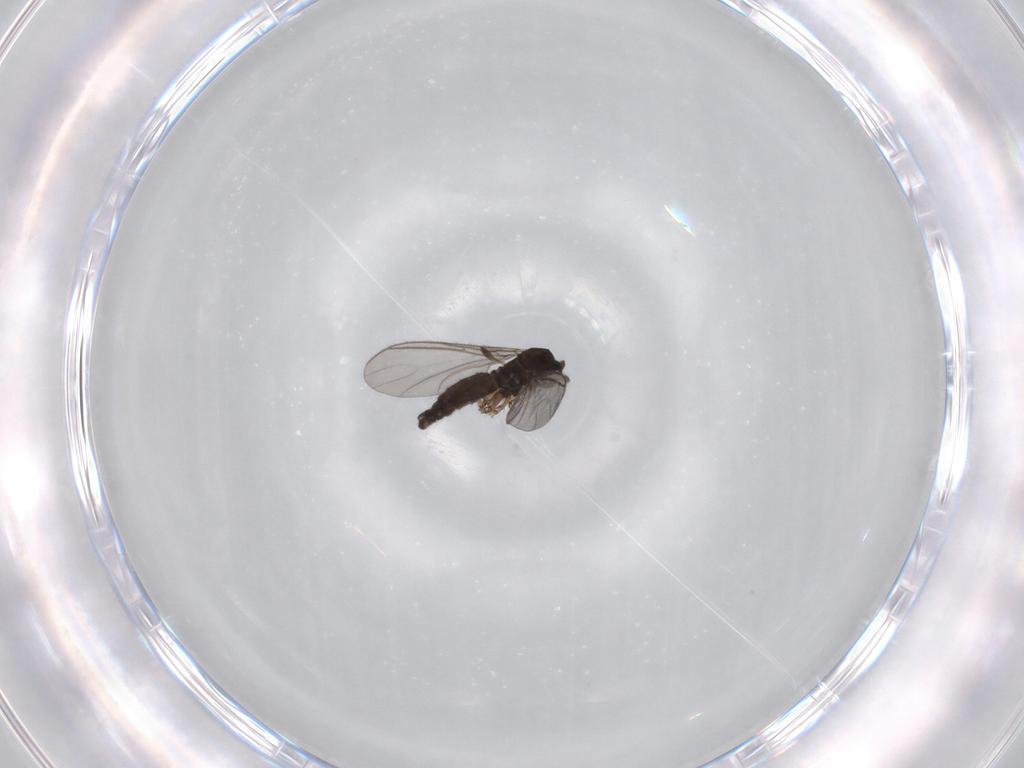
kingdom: Animalia
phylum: Arthropoda
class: Insecta
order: Diptera
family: Sciaridae
